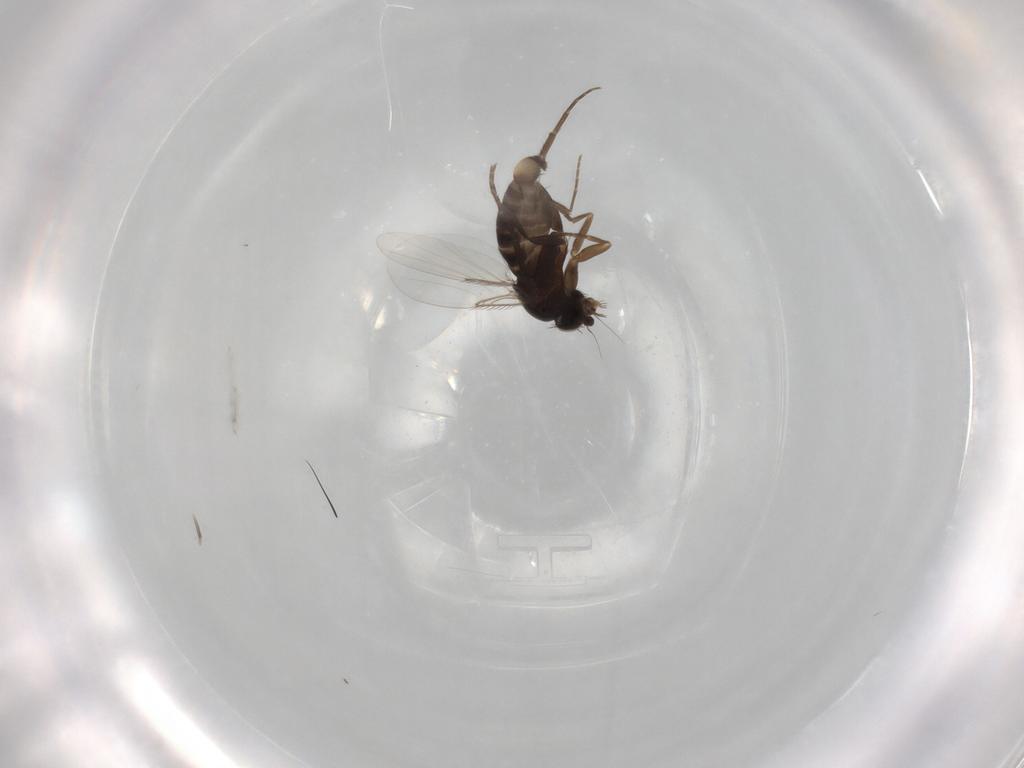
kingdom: Animalia
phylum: Arthropoda
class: Insecta
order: Diptera
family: Phoridae
